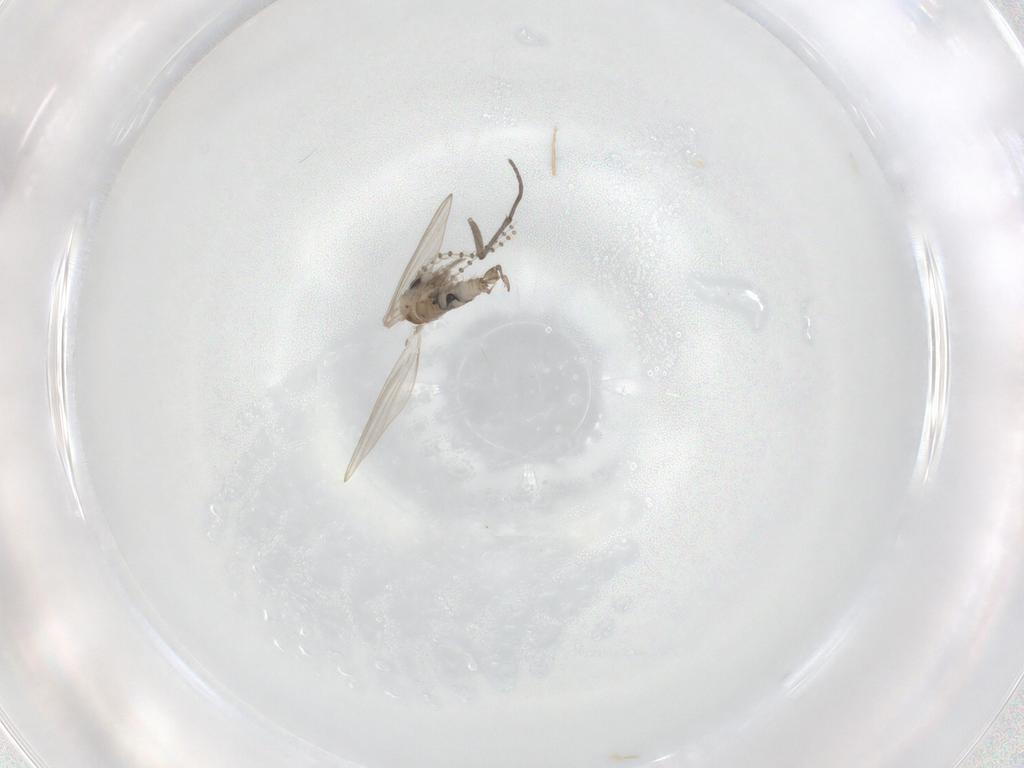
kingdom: Animalia
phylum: Arthropoda
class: Insecta
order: Diptera
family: Psychodidae
